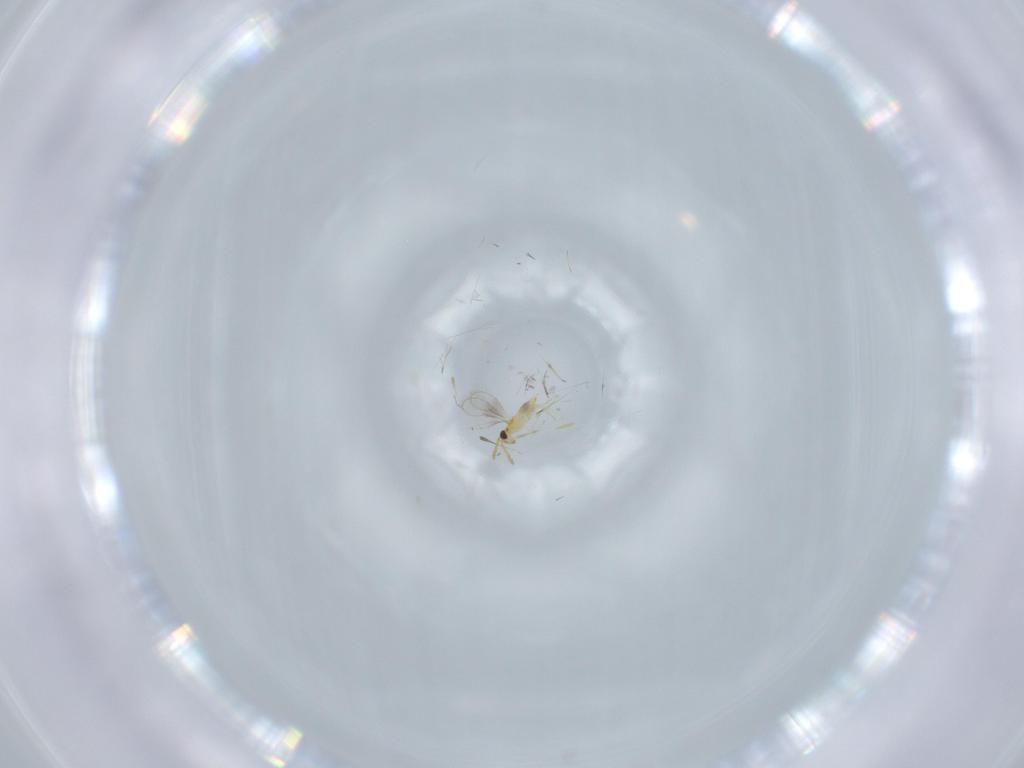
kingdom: Animalia
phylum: Arthropoda
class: Insecta
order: Hymenoptera
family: Aphelinidae
